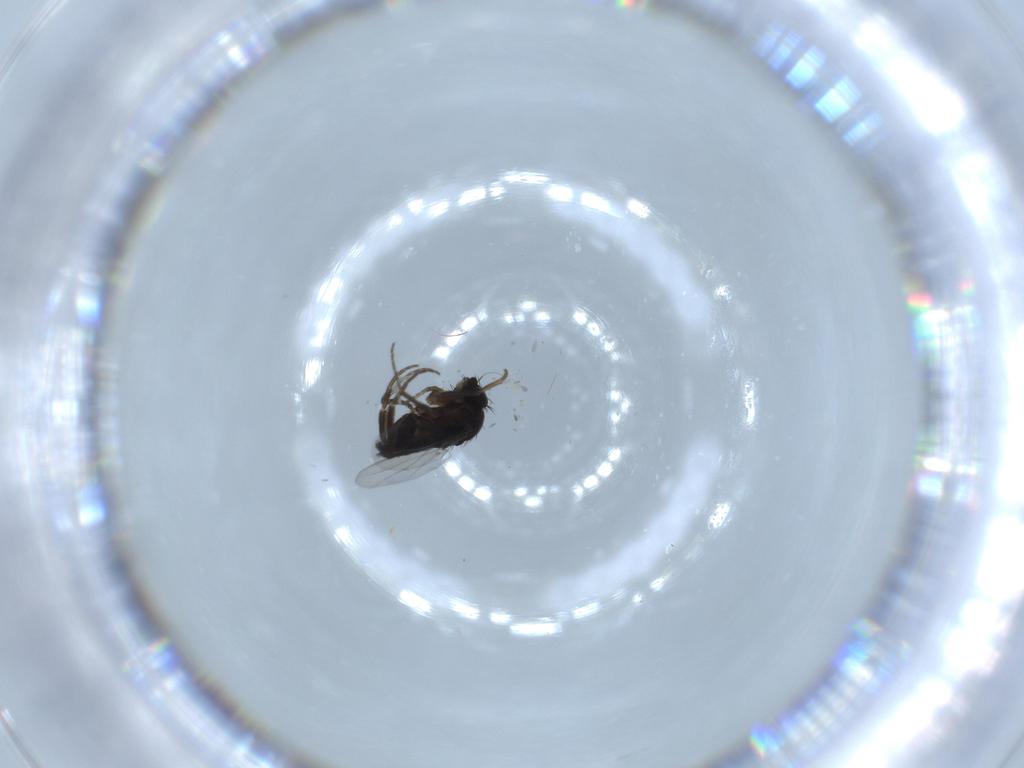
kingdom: Animalia
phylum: Arthropoda
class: Insecta
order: Diptera
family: Phoridae
